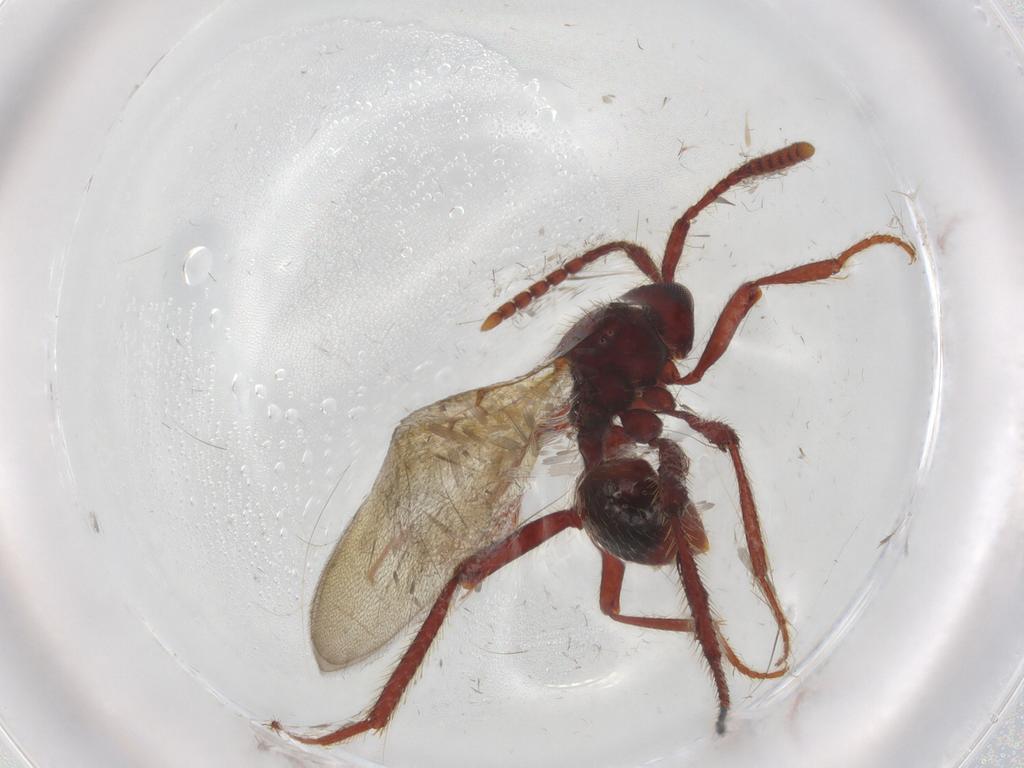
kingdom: Animalia
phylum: Arthropoda
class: Insecta
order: Hymenoptera
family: Diapriidae
